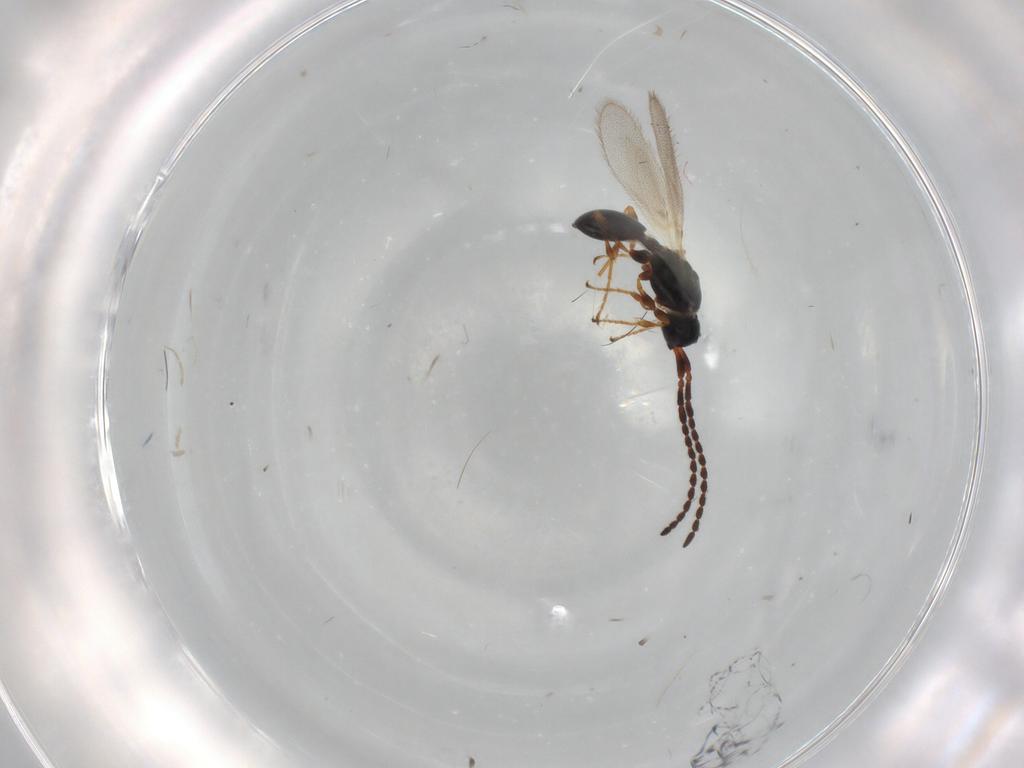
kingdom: Animalia
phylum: Arthropoda
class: Insecta
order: Hymenoptera
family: Diapriidae
